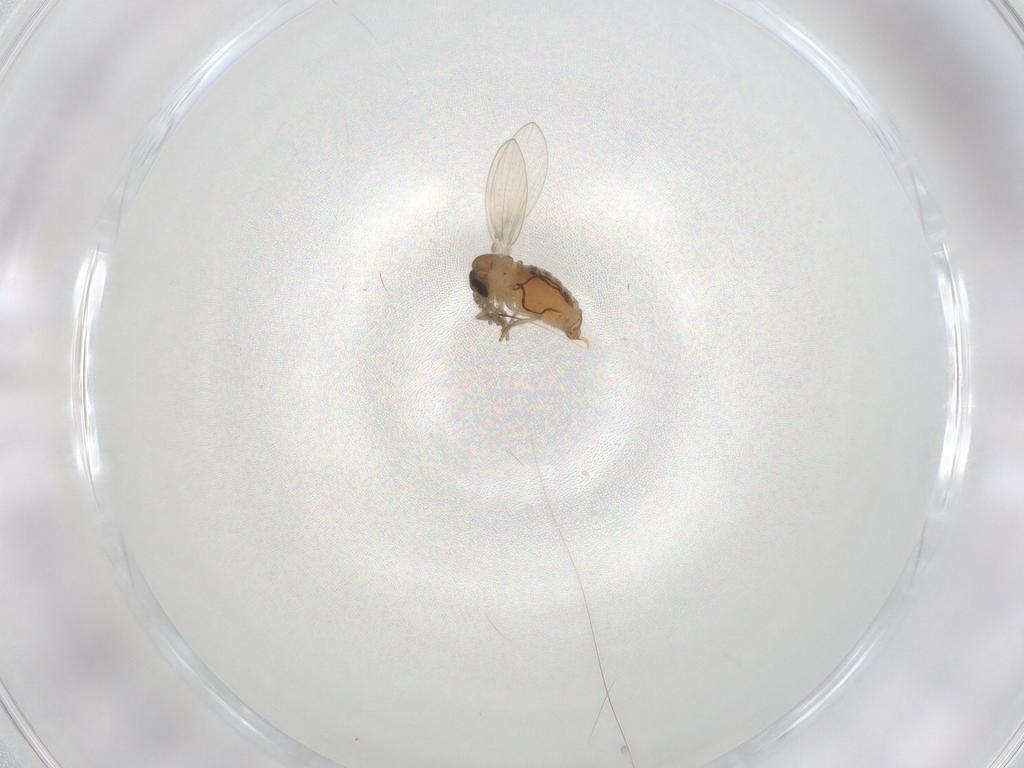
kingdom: Animalia
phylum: Arthropoda
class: Insecta
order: Diptera
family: Psychodidae
